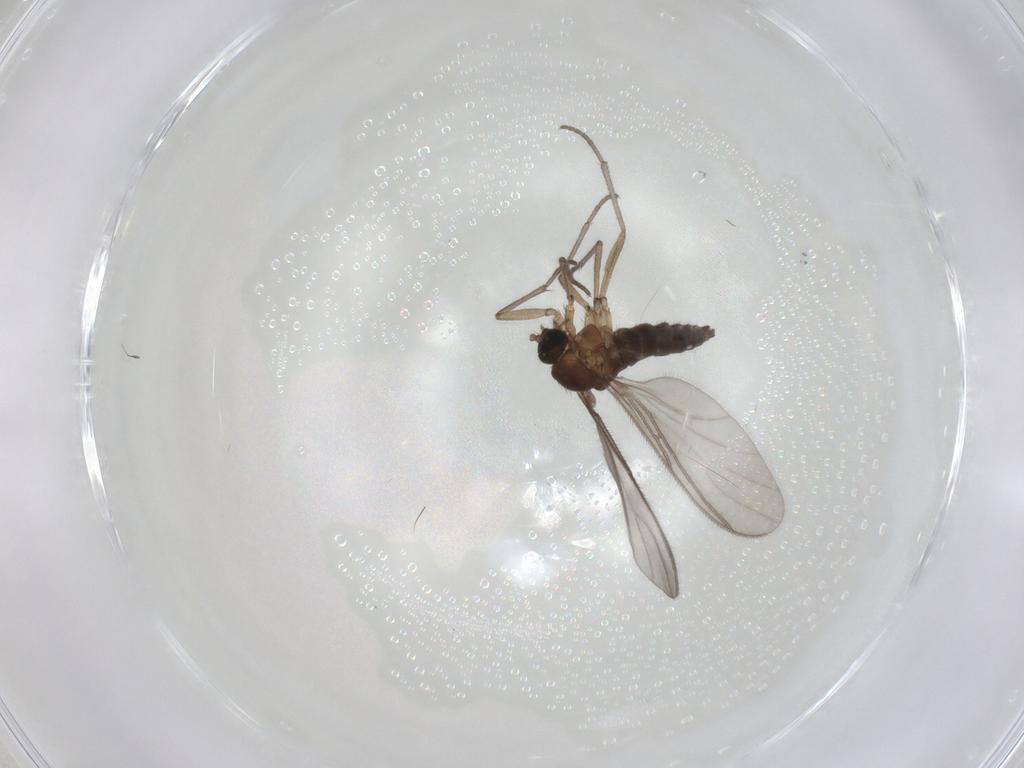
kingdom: Animalia
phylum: Arthropoda
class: Insecta
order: Diptera
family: Sciaridae
